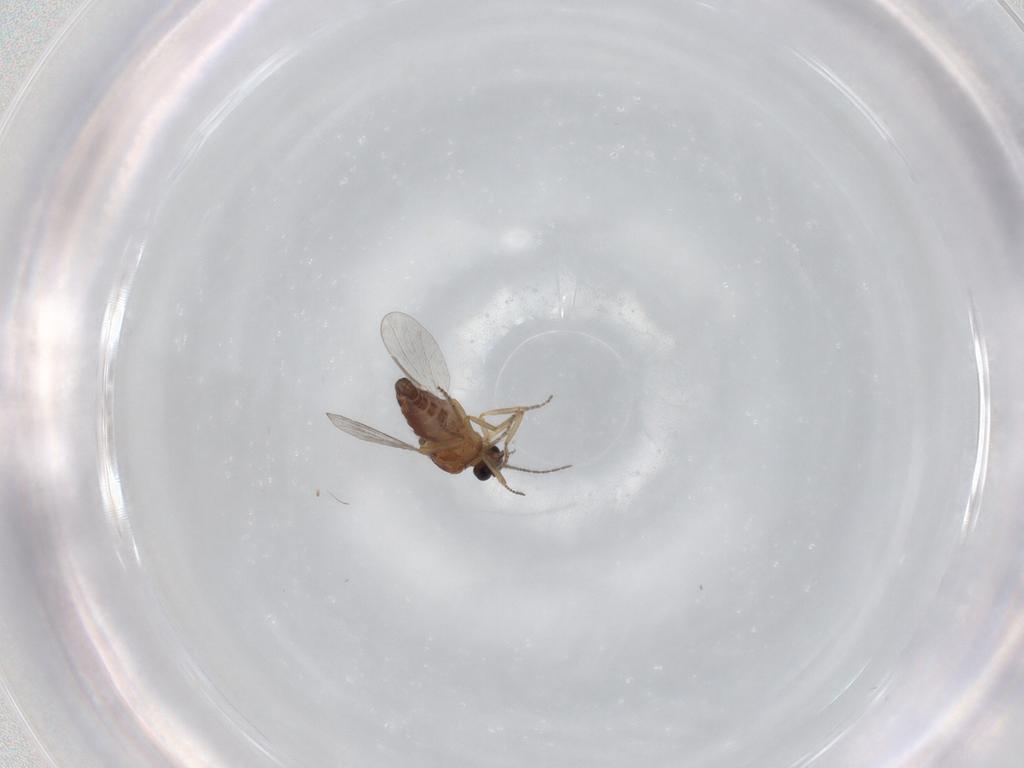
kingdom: Animalia
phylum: Arthropoda
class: Insecta
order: Diptera
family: Ceratopogonidae
